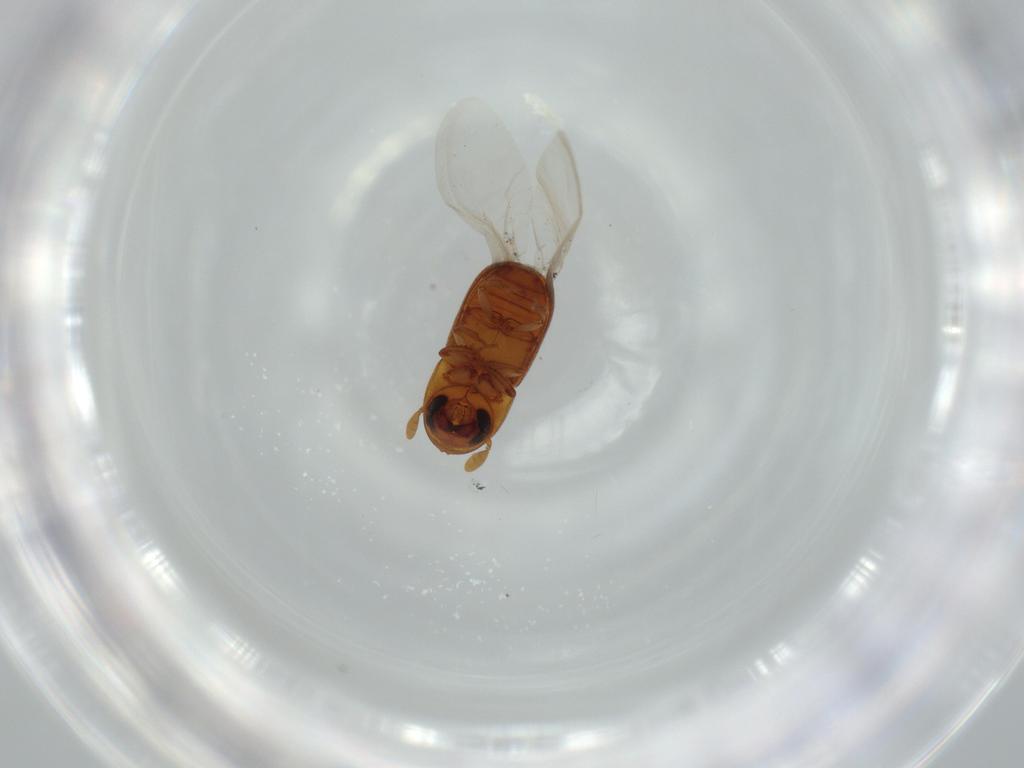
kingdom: Animalia
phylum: Arthropoda
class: Insecta
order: Coleoptera
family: Curculionidae
